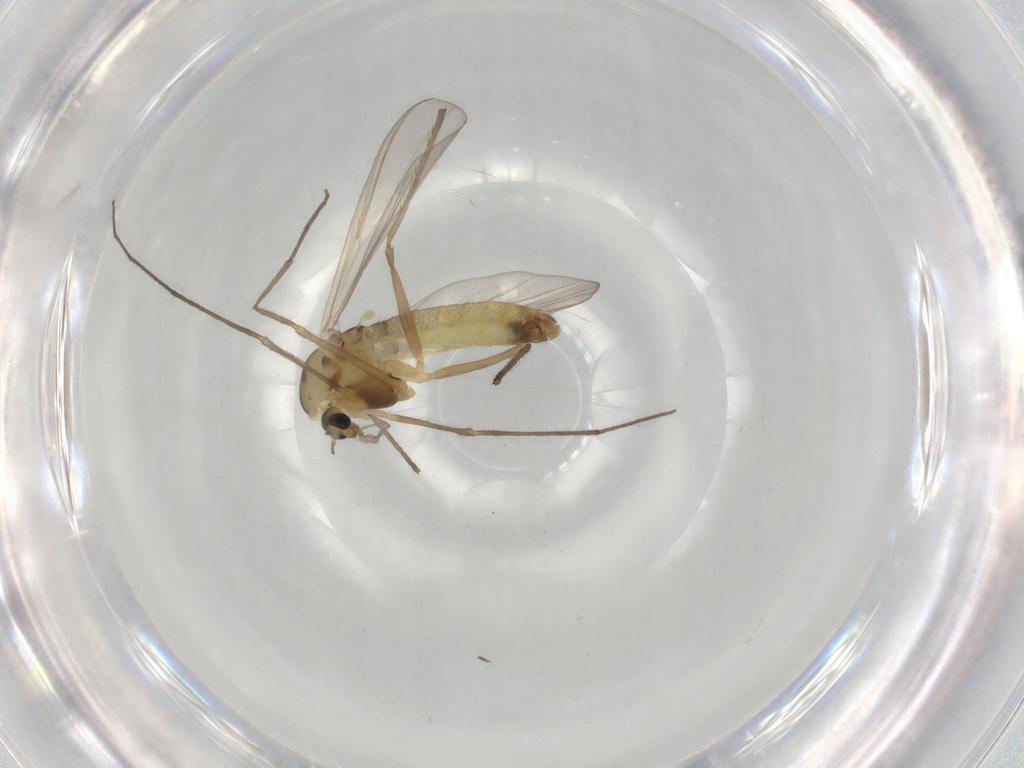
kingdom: Animalia
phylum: Arthropoda
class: Insecta
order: Diptera
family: Chironomidae
